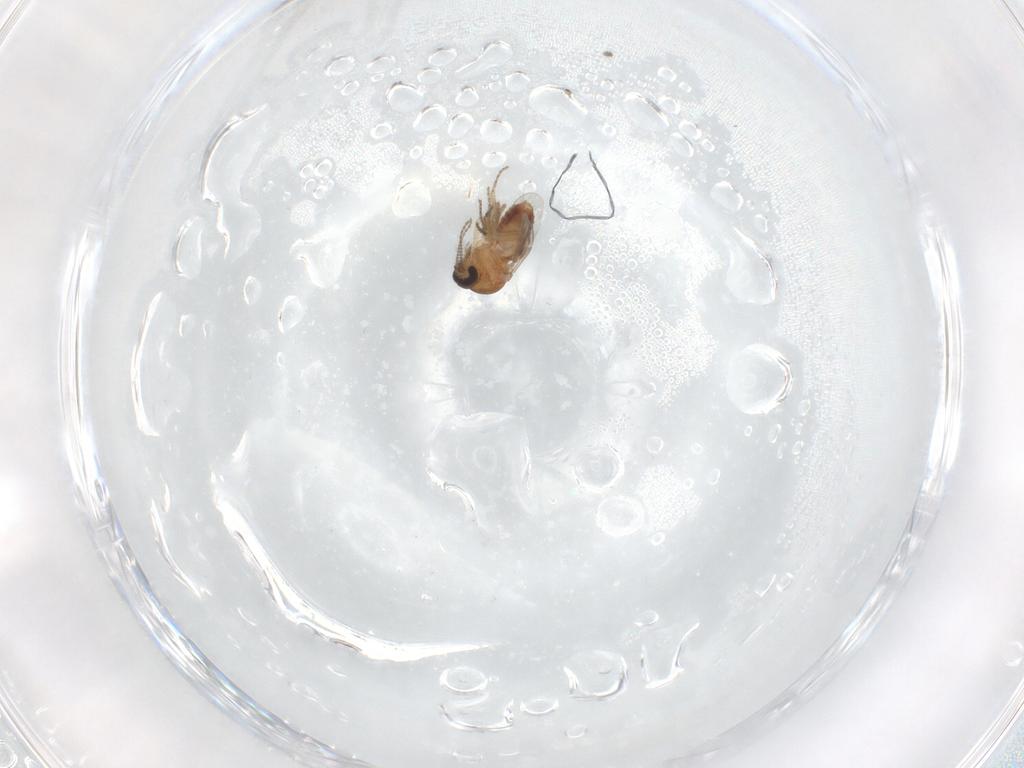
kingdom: Animalia
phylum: Arthropoda
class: Insecta
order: Diptera
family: Ceratopogonidae
